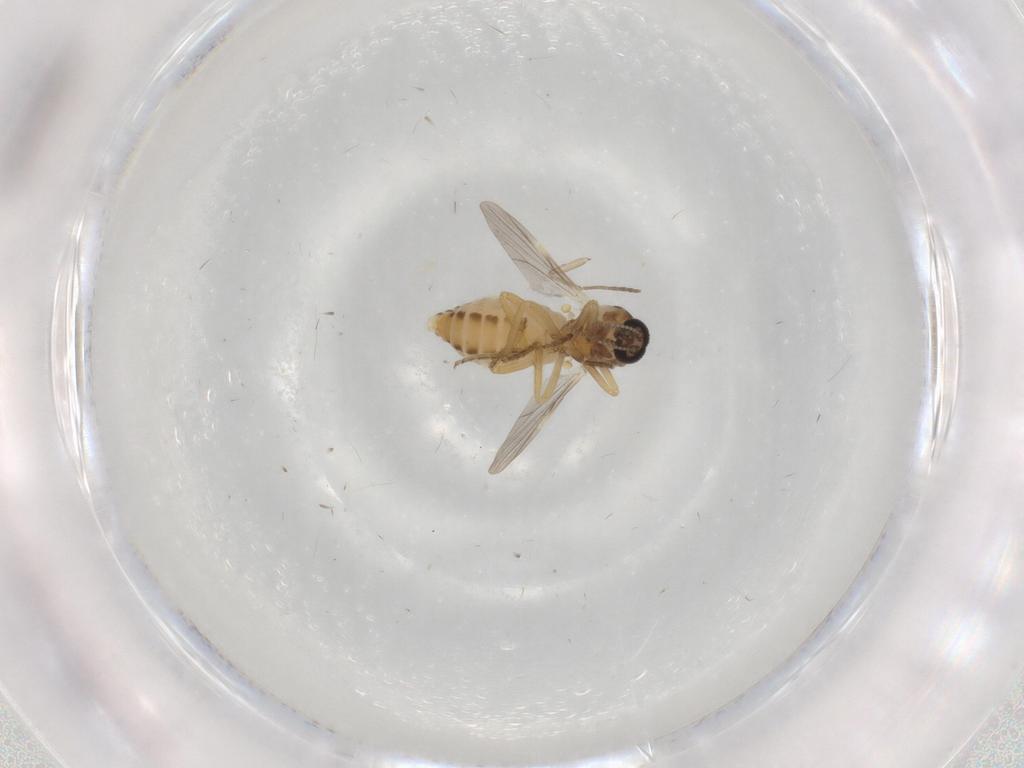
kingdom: Animalia
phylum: Arthropoda
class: Insecta
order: Diptera
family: Ceratopogonidae
